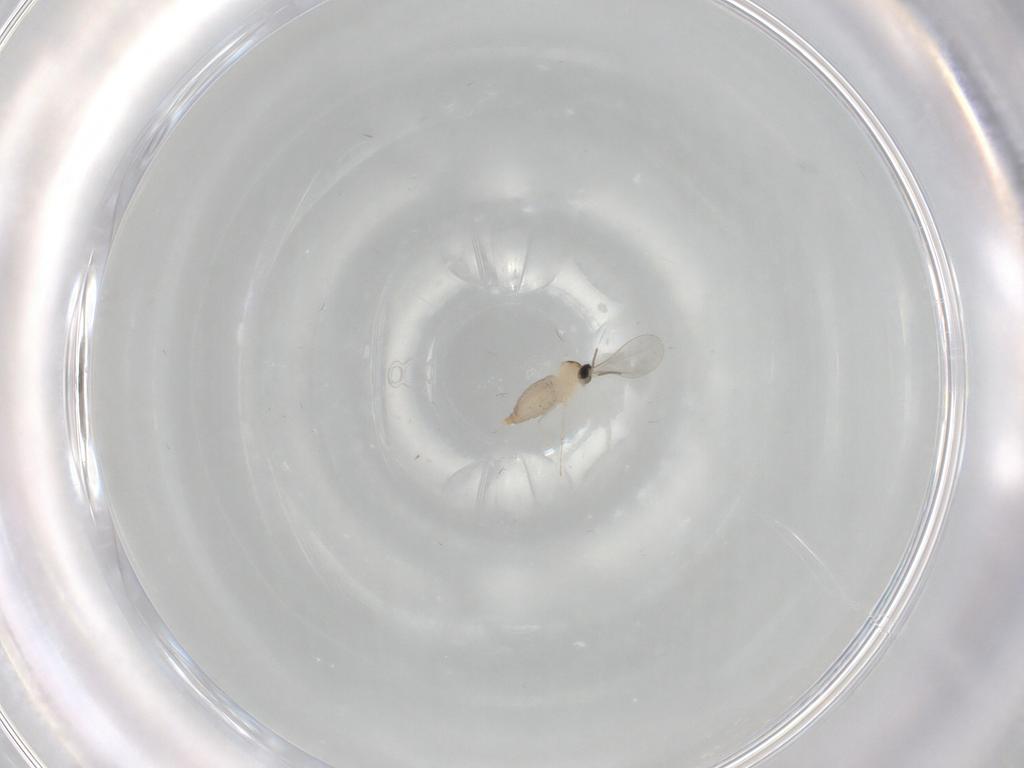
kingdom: Animalia
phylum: Arthropoda
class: Insecta
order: Diptera
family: Cecidomyiidae
